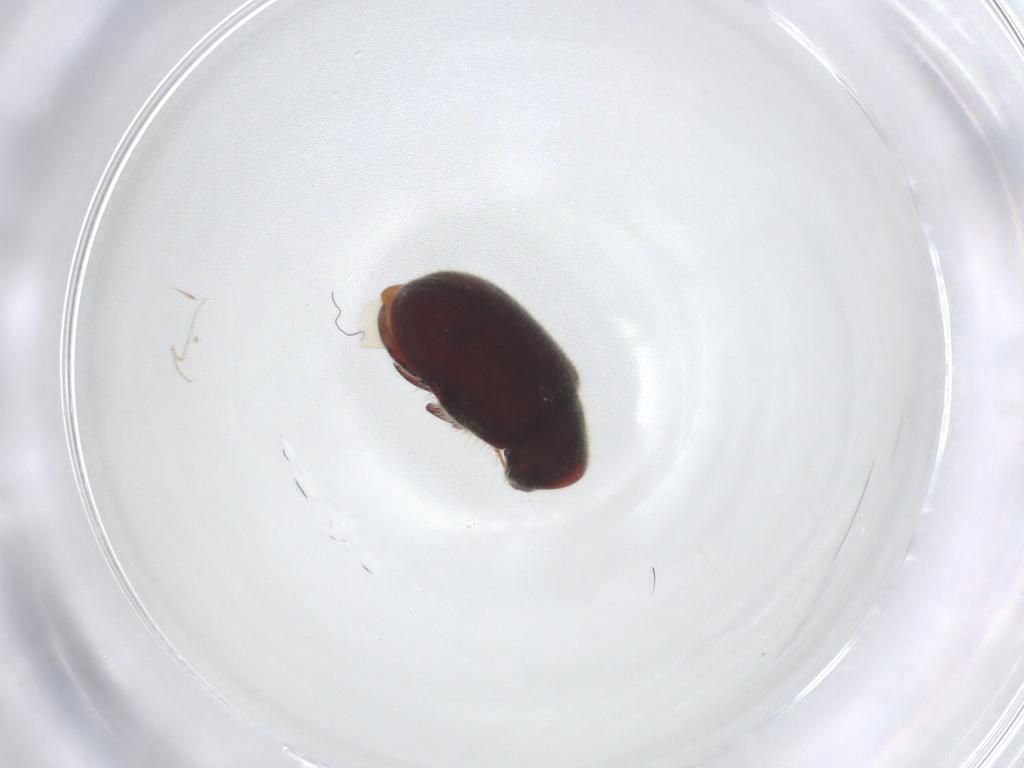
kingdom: Animalia
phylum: Arthropoda
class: Insecta
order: Coleoptera
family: Ptinidae
